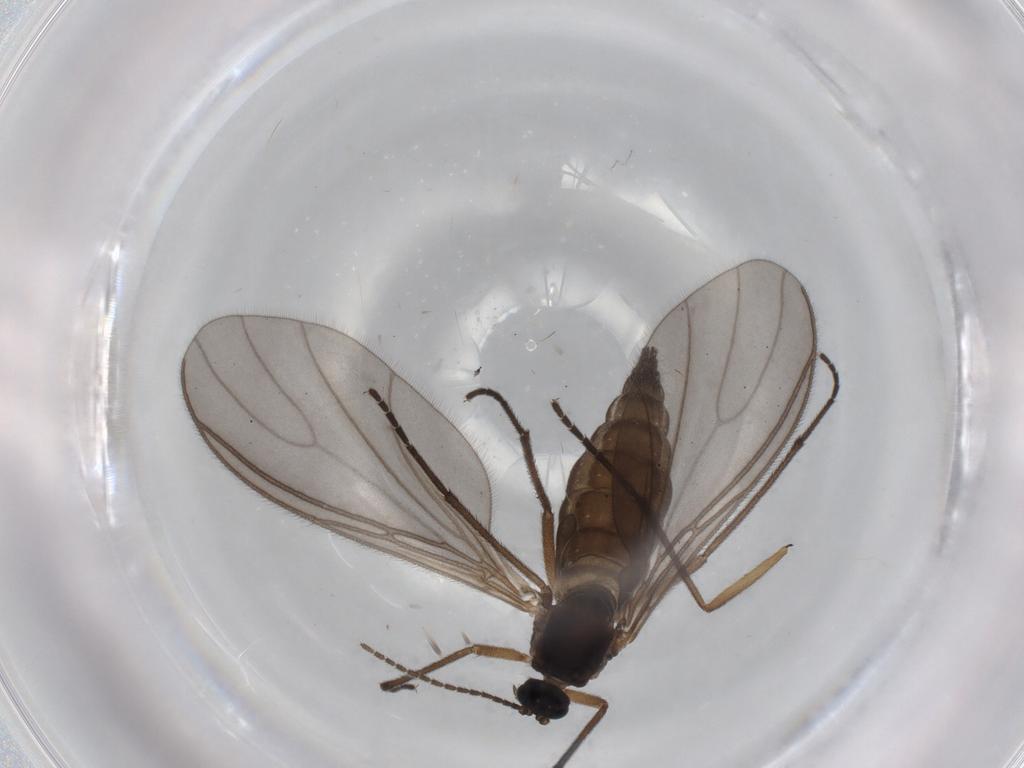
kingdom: Animalia
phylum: Arthropoda
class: Insecta
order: Diptera
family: Sciaridae
